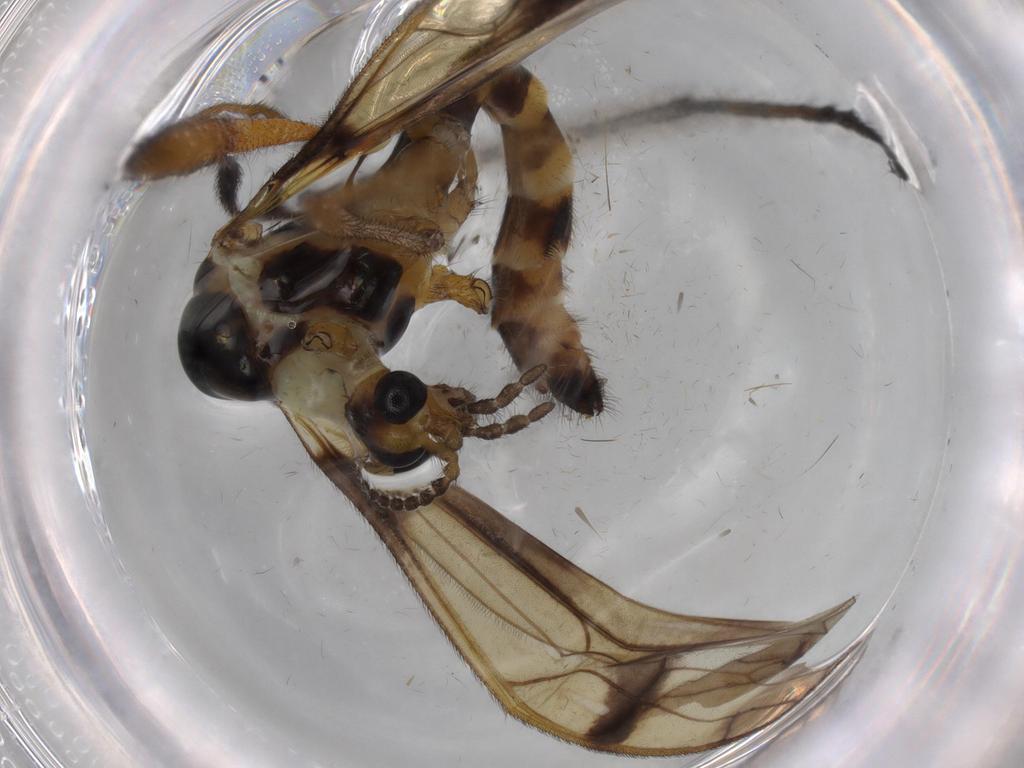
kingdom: Animalia
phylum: Arthropoda
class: Insecta
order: Diptera
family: Limoniidae
